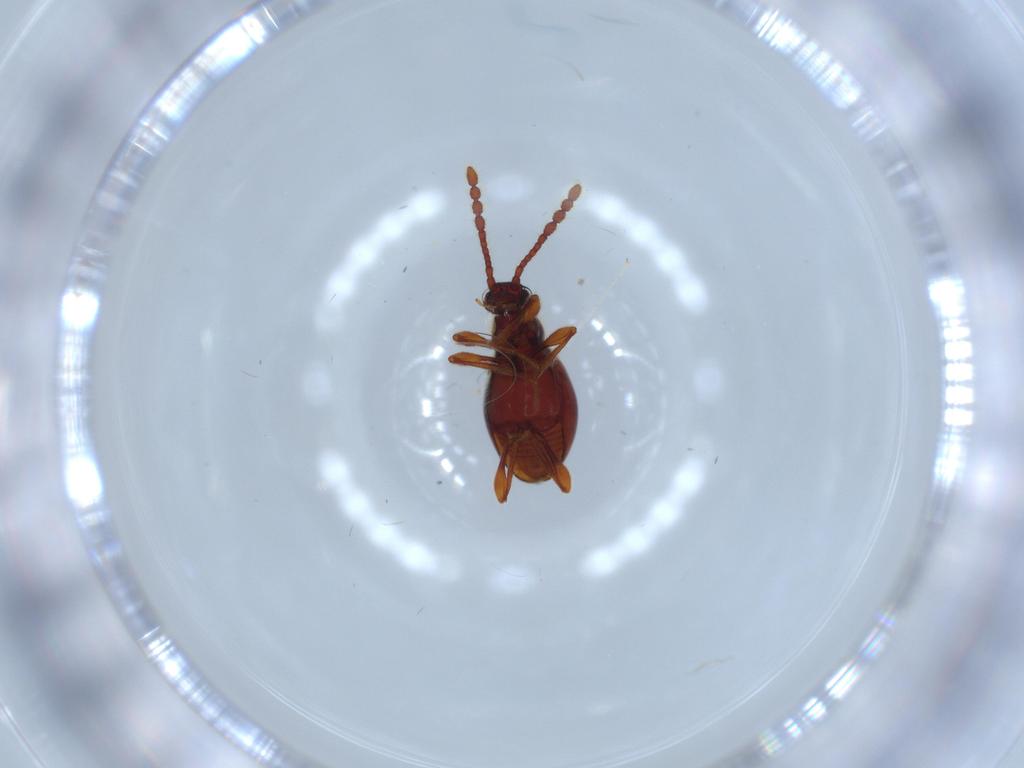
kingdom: Animalia
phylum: Arthropoda
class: Insecta
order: Coleoptera
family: Staphylinidae
